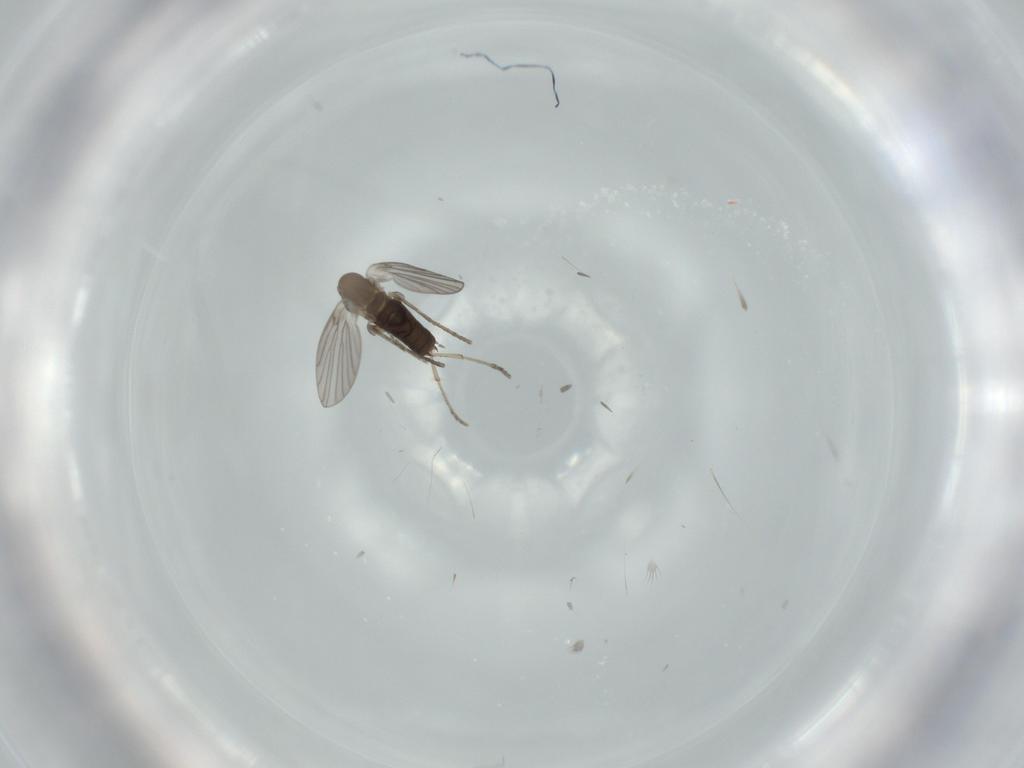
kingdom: Animalia
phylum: Arthropoda
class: Insecta
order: Diptera
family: Psychodidae
